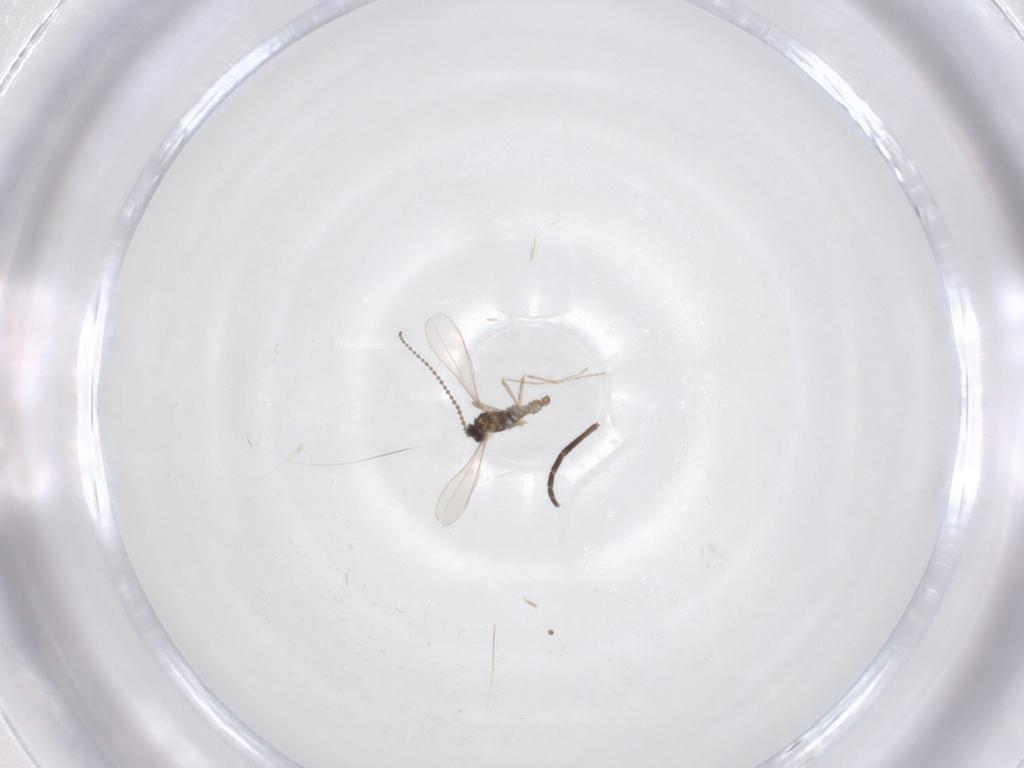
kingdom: Animalia
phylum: Arthropoda
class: Insecta
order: Diptera
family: Cecidomyiidae
